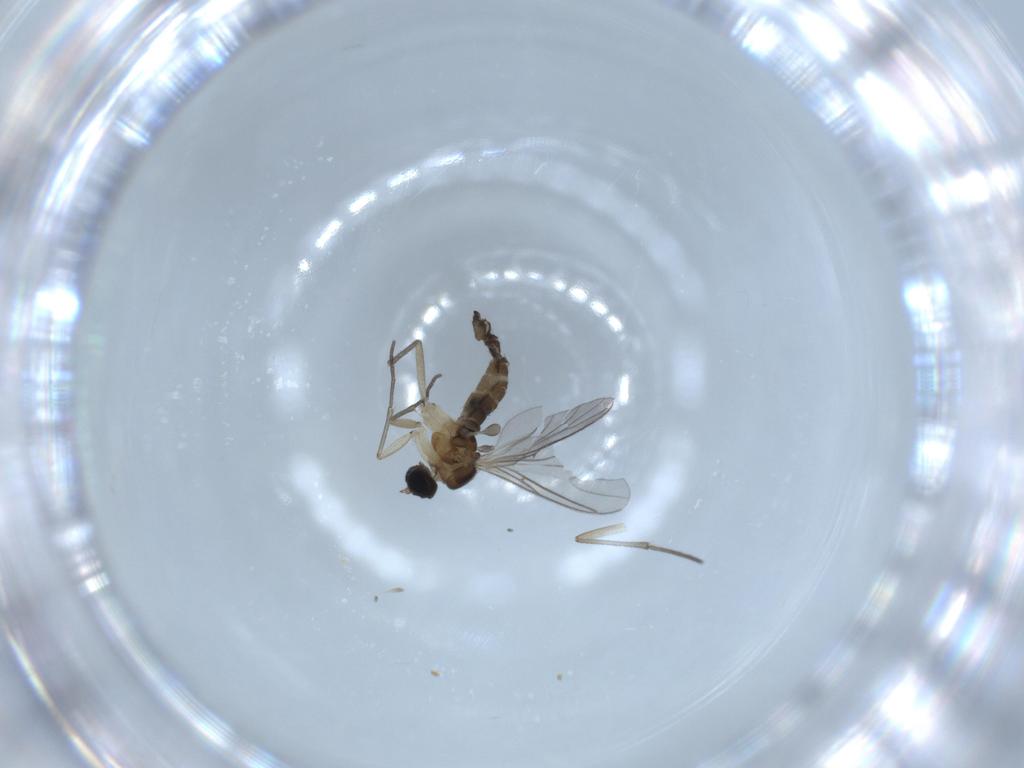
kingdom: Animalia
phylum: Arthropoda
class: Insecta
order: Diptera
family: Sciaridae
